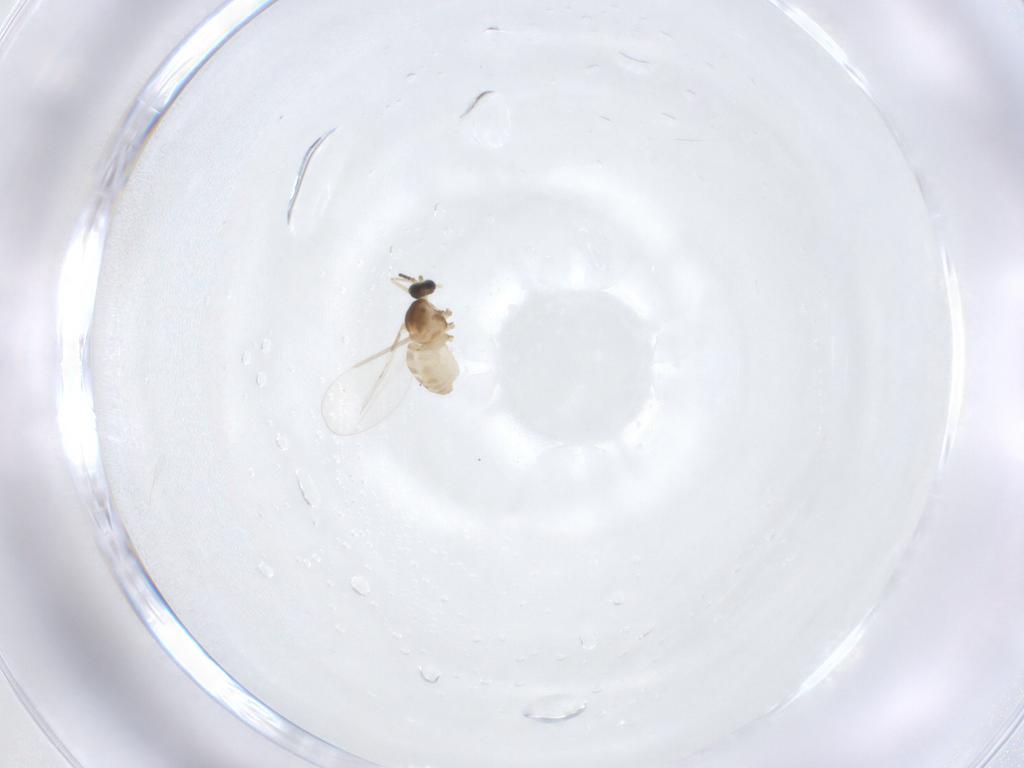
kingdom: Animalia
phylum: Arthropoda
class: Insecta
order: Diptera
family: Cecidomyiidae
